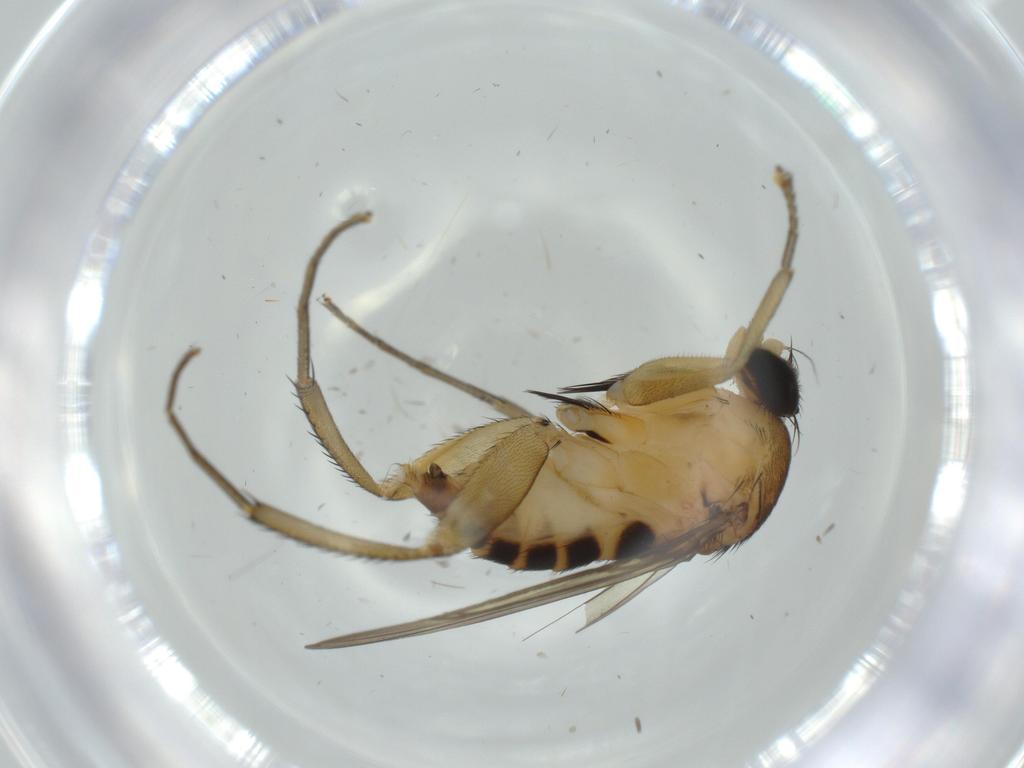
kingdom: Animalia
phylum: Arthropoda
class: Insecta
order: Diptera
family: Phoridae
